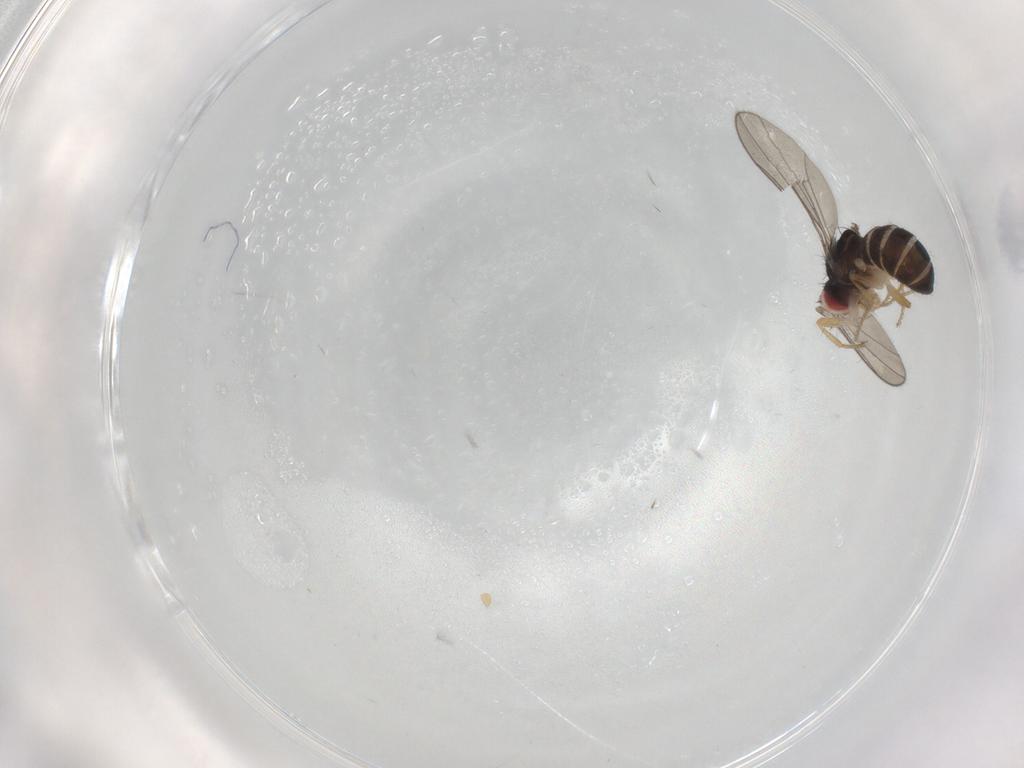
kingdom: Animalia
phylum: Arthropoda
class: Insecta
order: Diptera
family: Drosophilidae
